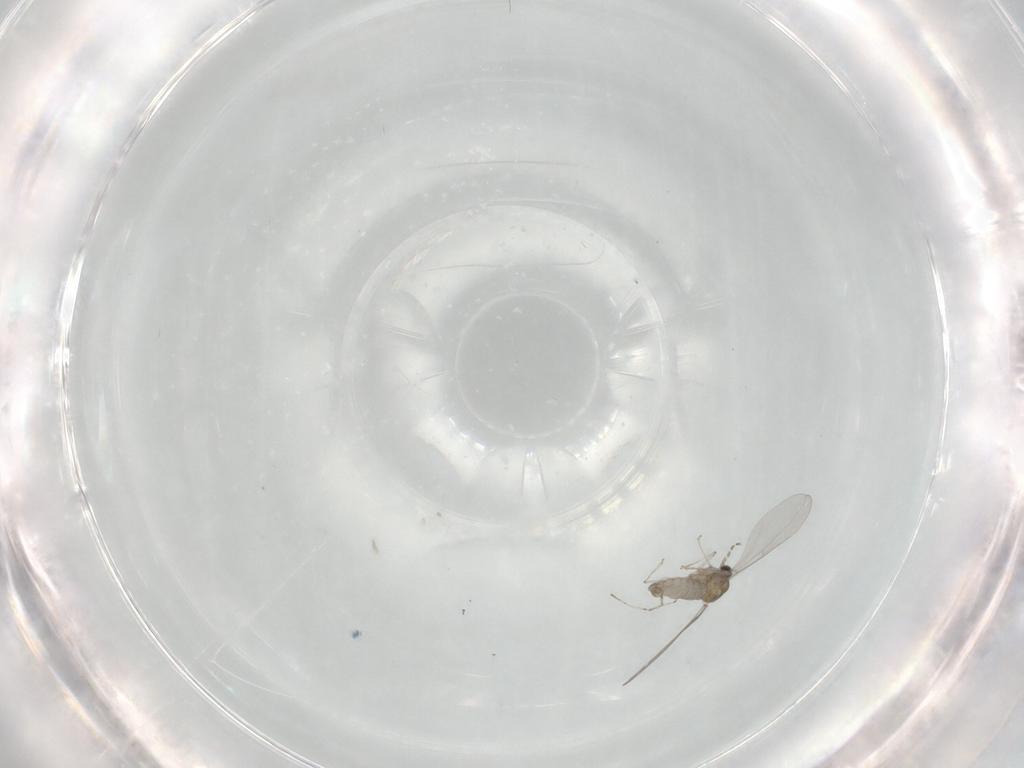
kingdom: Animalia
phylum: Arthropoda
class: Insecta
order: Diptera
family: Cecidomyiidae
